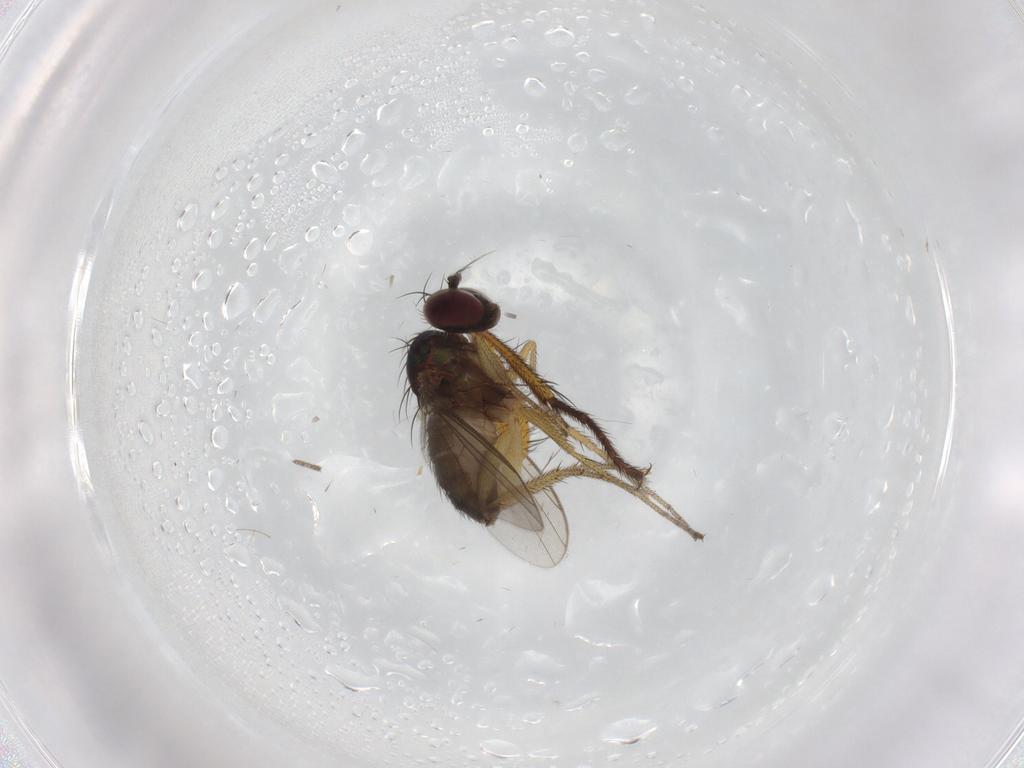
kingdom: Animalia
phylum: Arthropoda
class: Insecta
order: Diptera
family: Muscidae
